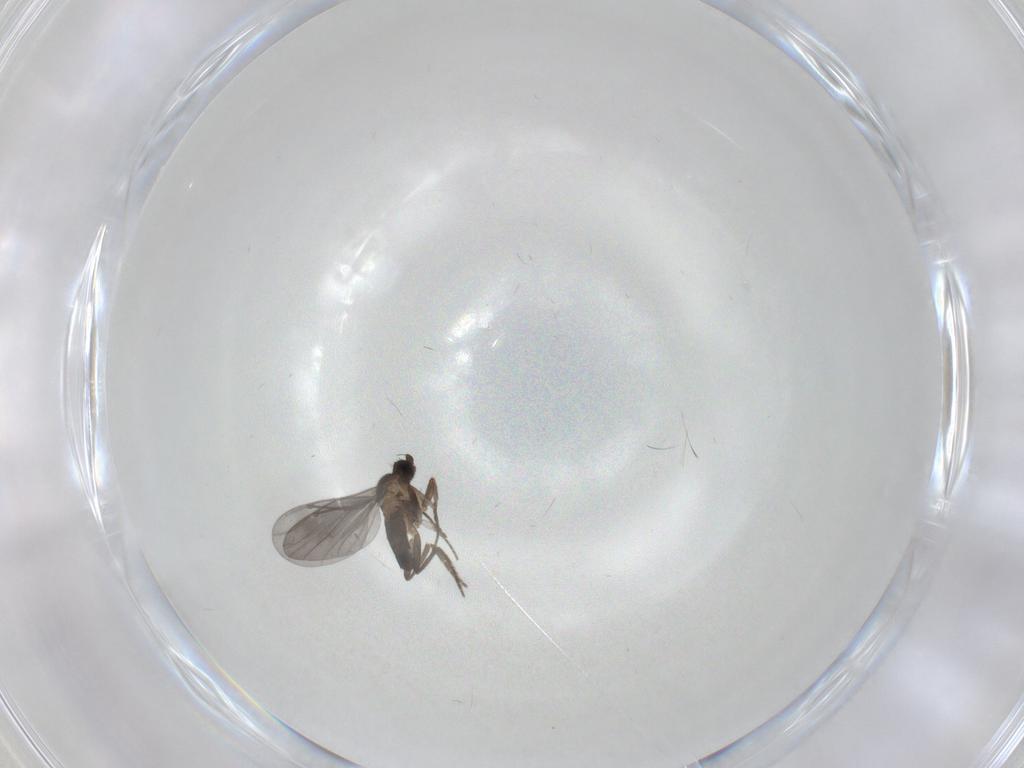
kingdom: Animalia
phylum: Arthropoda
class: Insecta
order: Diptera
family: Phoridae
